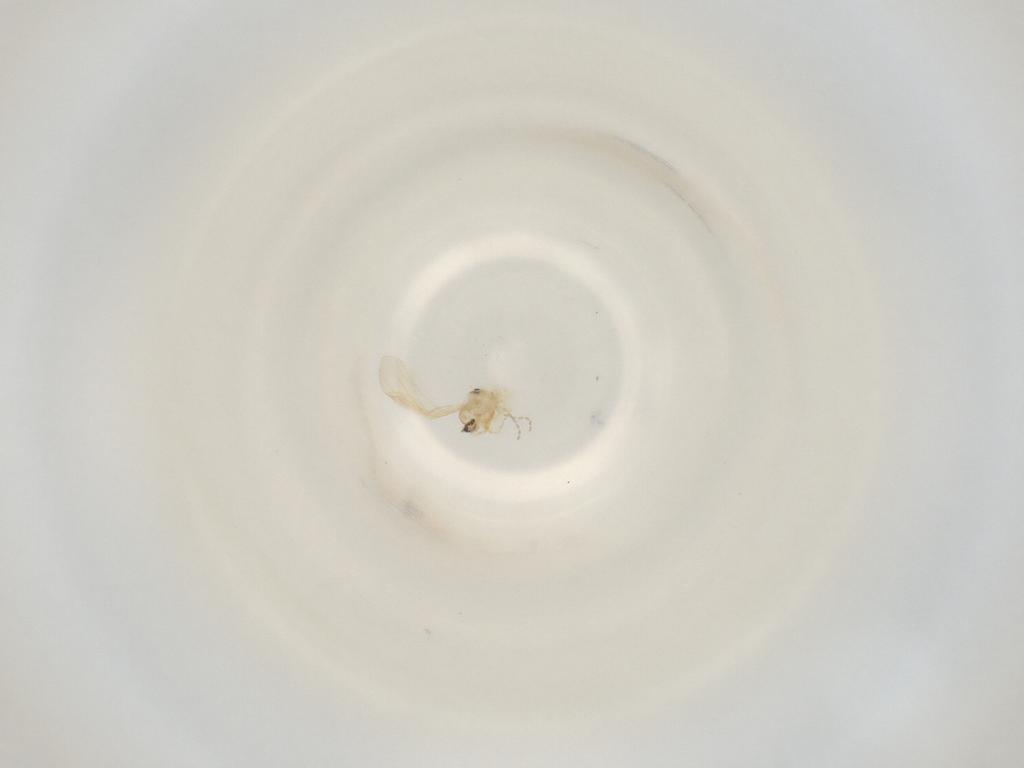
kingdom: Animalia
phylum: Arthropoda
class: Insecta
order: Diptera
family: Cecidomyiidae
